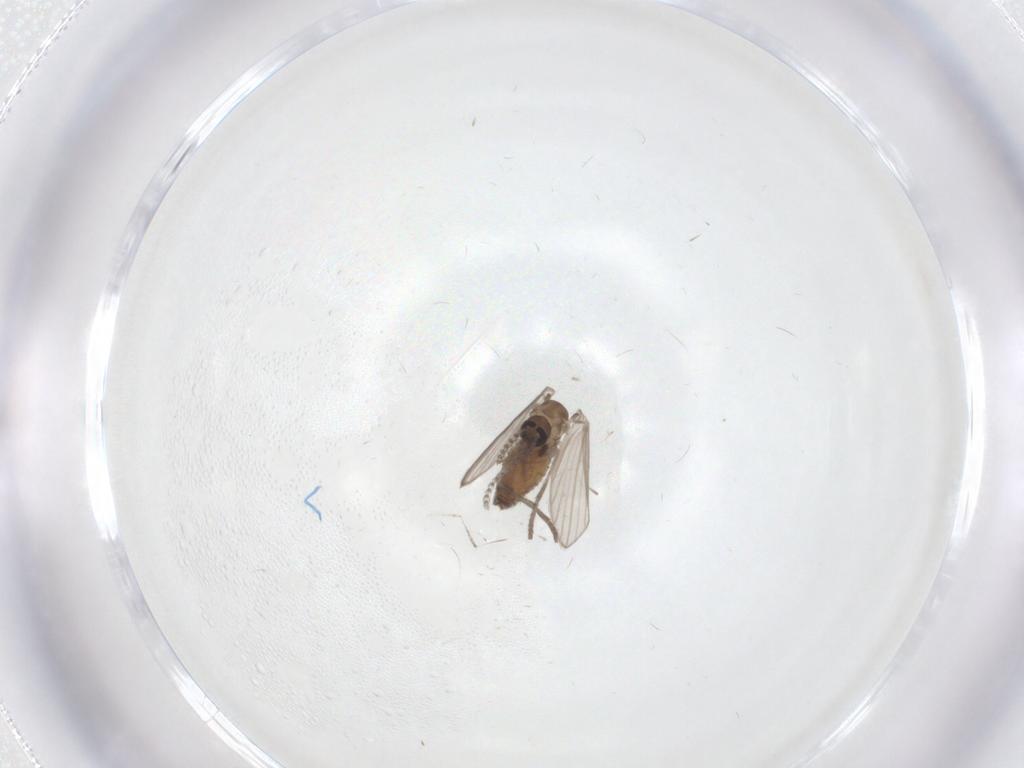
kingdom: Animalia
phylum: Arthropoda
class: Insecta
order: Diptera
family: Psychodidae
